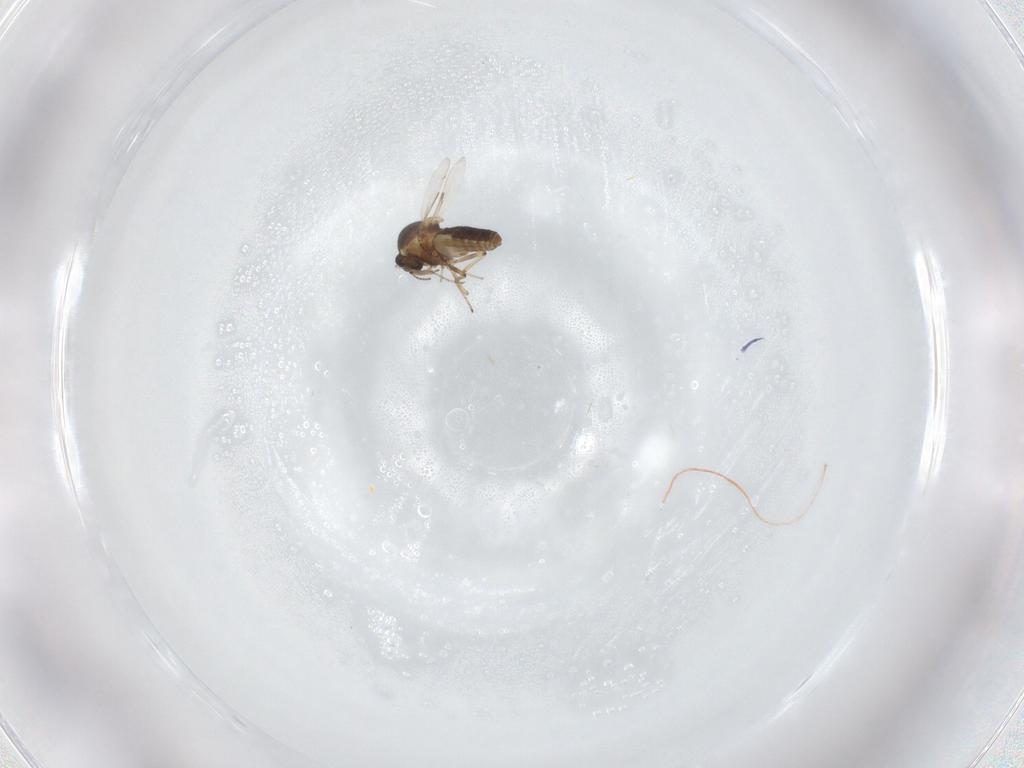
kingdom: Animalia
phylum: Arthropoda
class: Insecta
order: Diptera
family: Ceratopogonidae
